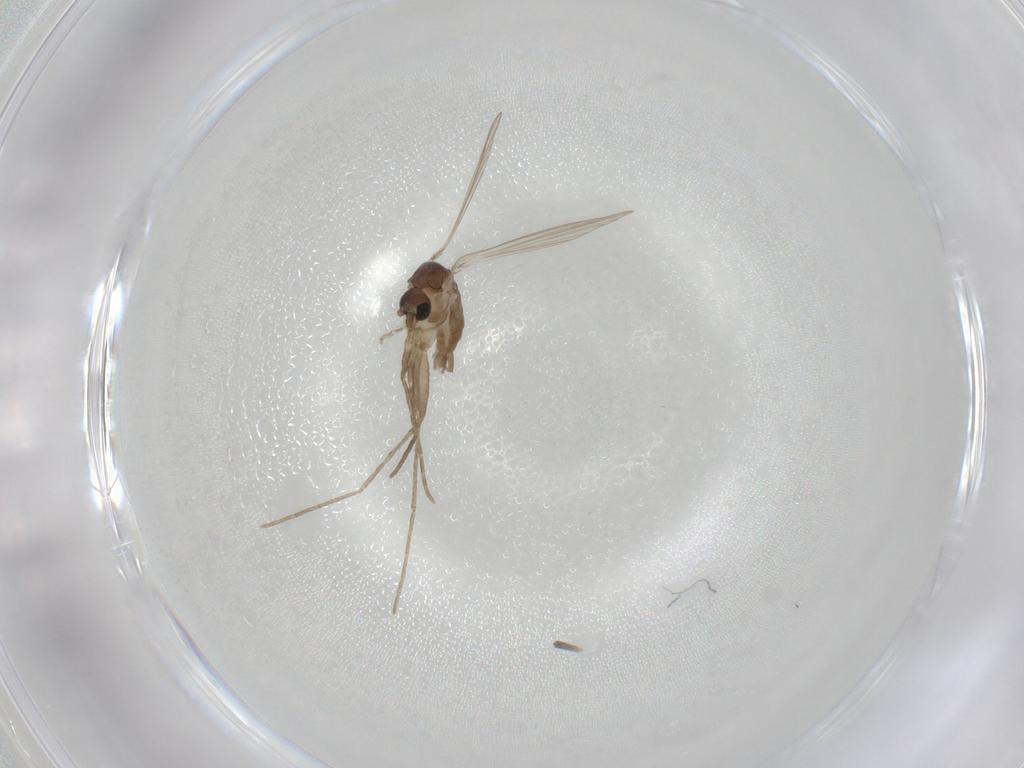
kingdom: Animalia
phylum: Arthropoda
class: Insecta
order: Diptera
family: Psychodidae
